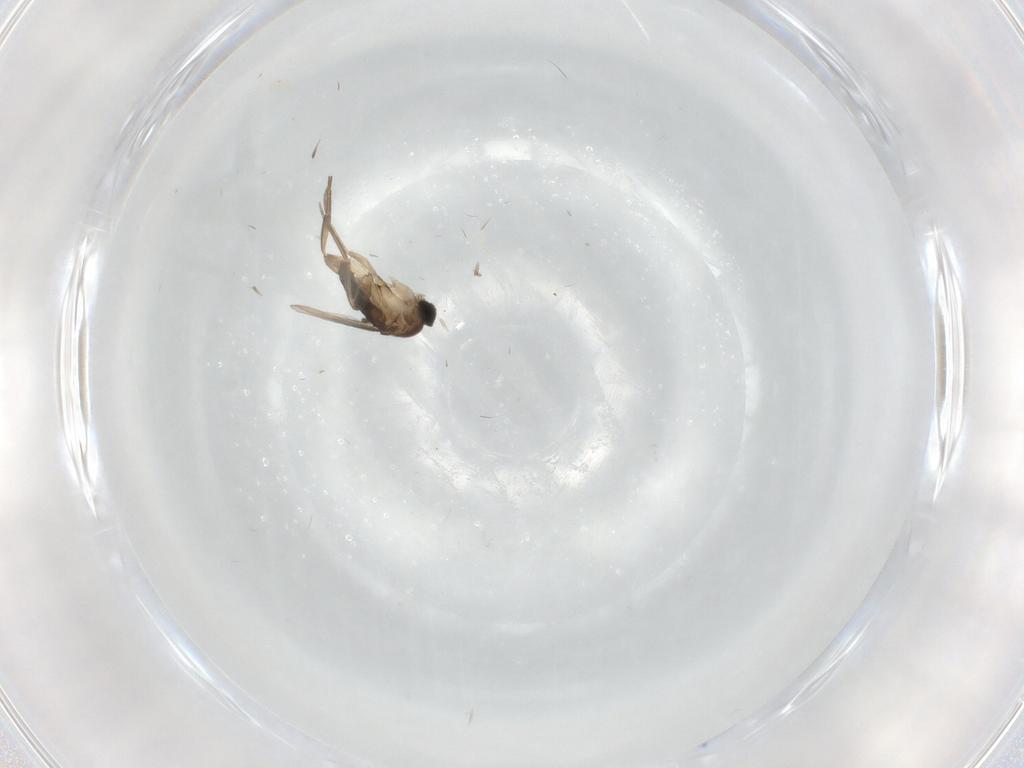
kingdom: Animalia
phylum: Arthropoda
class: Insecta
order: Diptera
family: Phoridae
